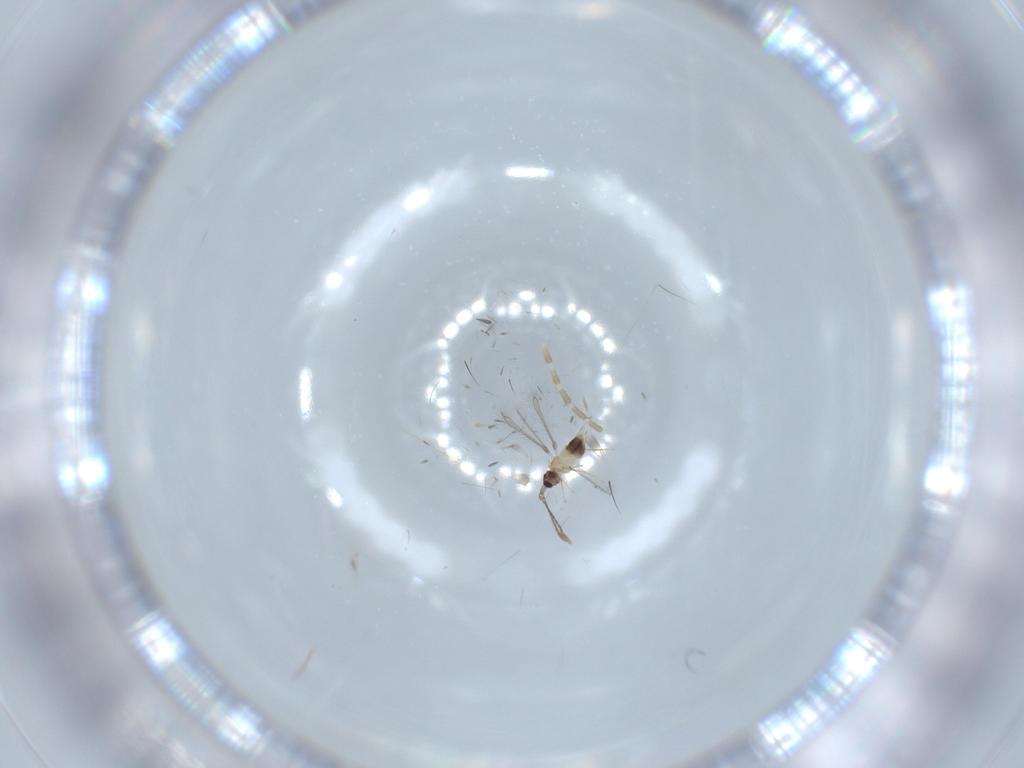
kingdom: Animalia
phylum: Arthropoda
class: Insecta
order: Hymenoptera
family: Mymaridae
